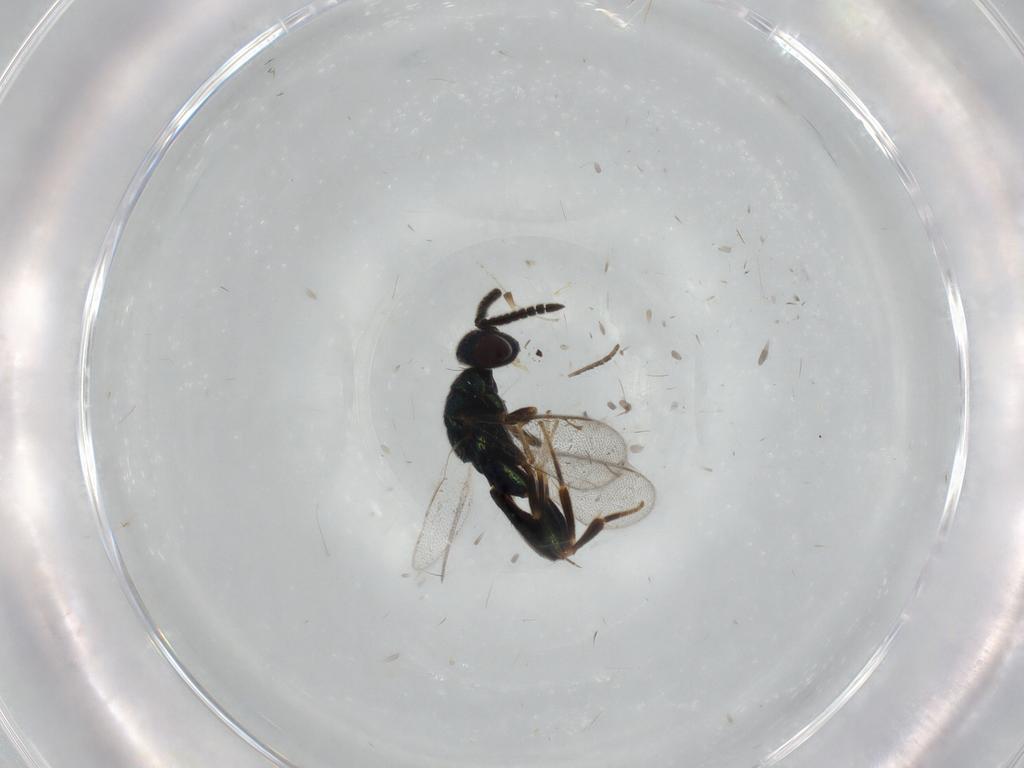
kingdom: Animalia
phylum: Arthropoda
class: Insecta
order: Hymenoptera
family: Cleonyminae
